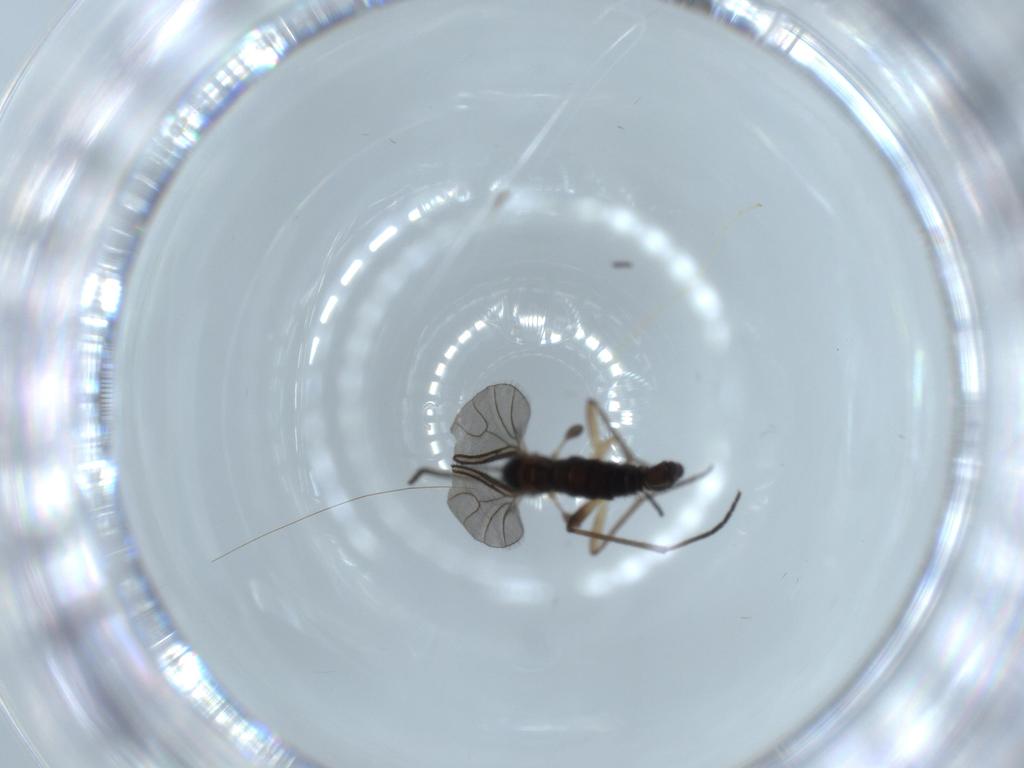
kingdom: Animalia
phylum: Arthropoda
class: Insecta
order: Diptera
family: Sciaridae
